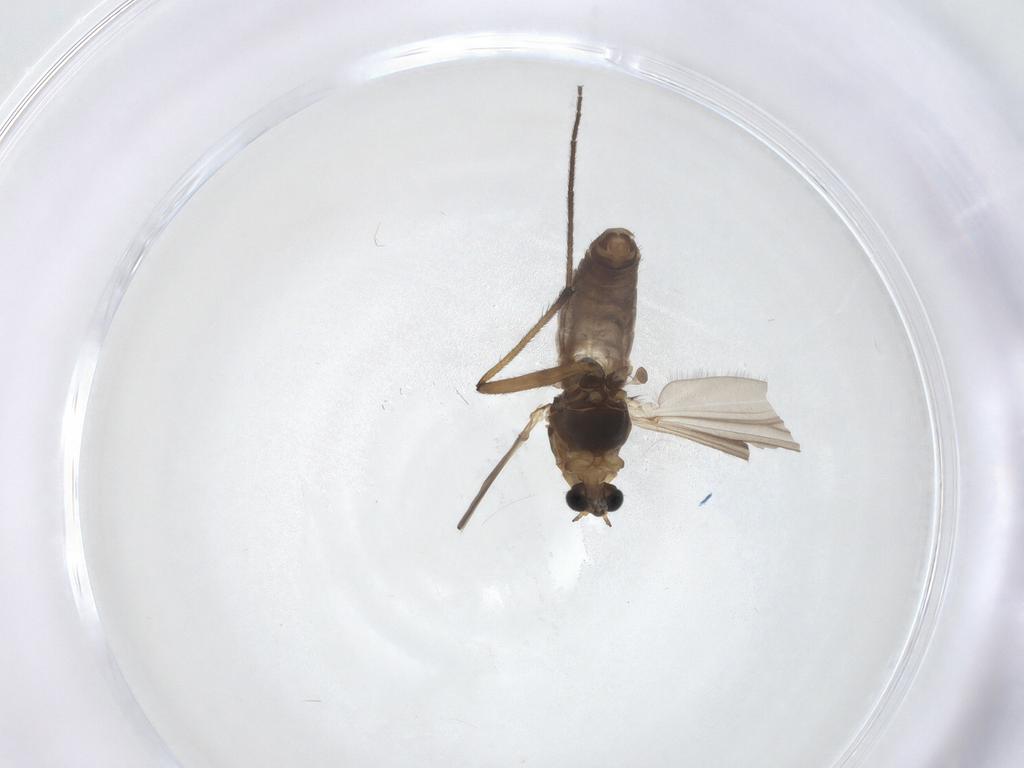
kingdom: Animalia
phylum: Arthropoda
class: Insecta
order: Diptera
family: Chironomidae
